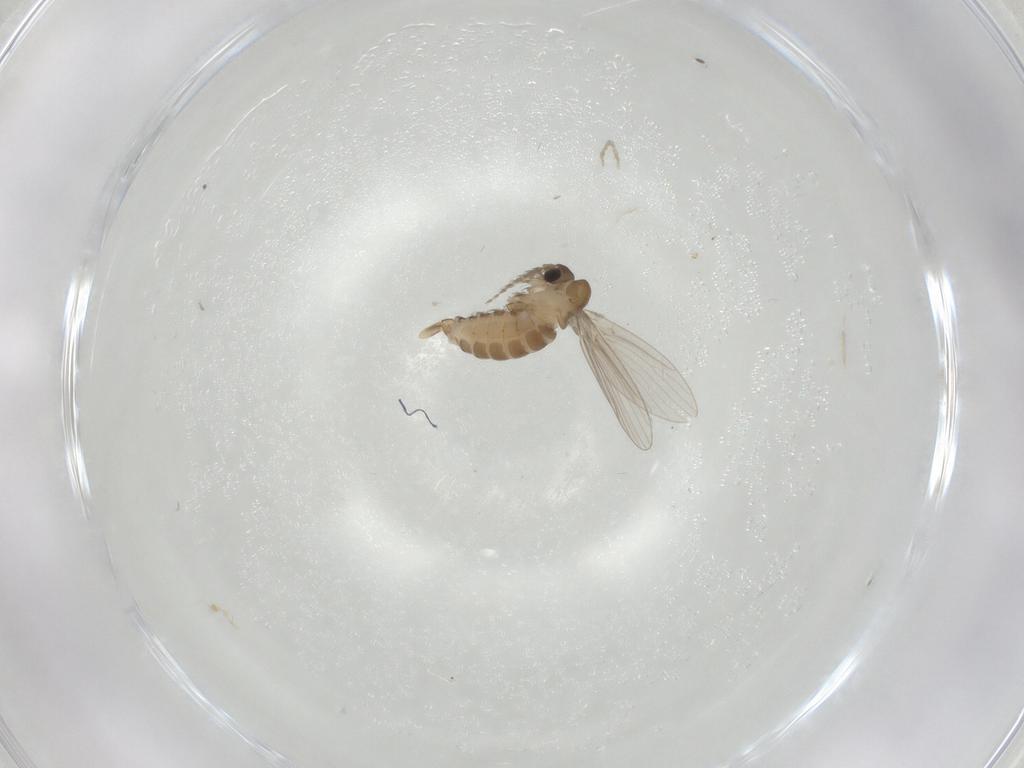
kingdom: Animalia
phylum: Arthropoda
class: Insecta
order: Diptera
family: Psychodidae
